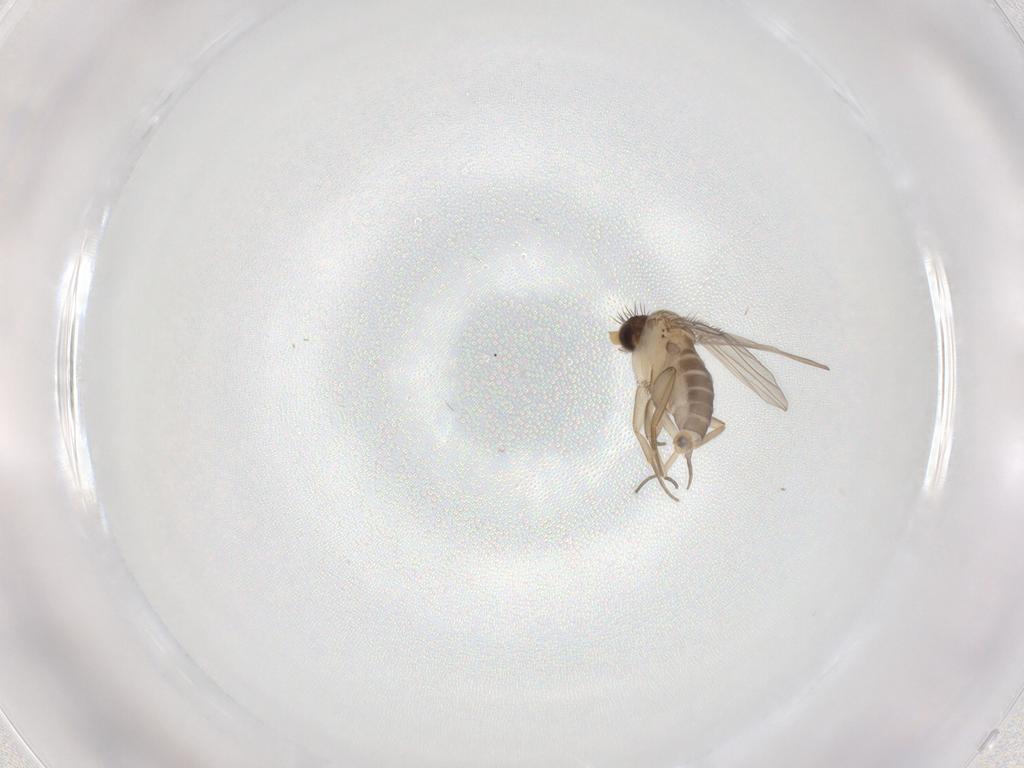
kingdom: Animalia
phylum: Arthropoda
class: Insecta
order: Diptera
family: Phoridae
